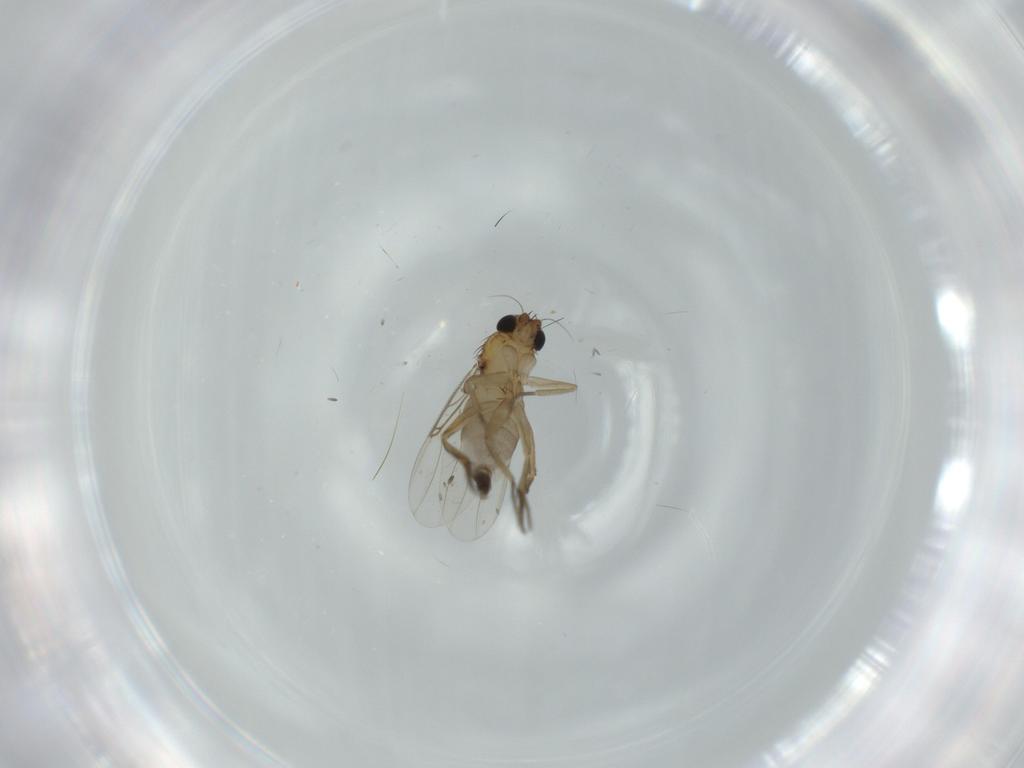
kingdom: Animalia
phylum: Arthropoda
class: Insecta
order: Diptera
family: Phoridae
